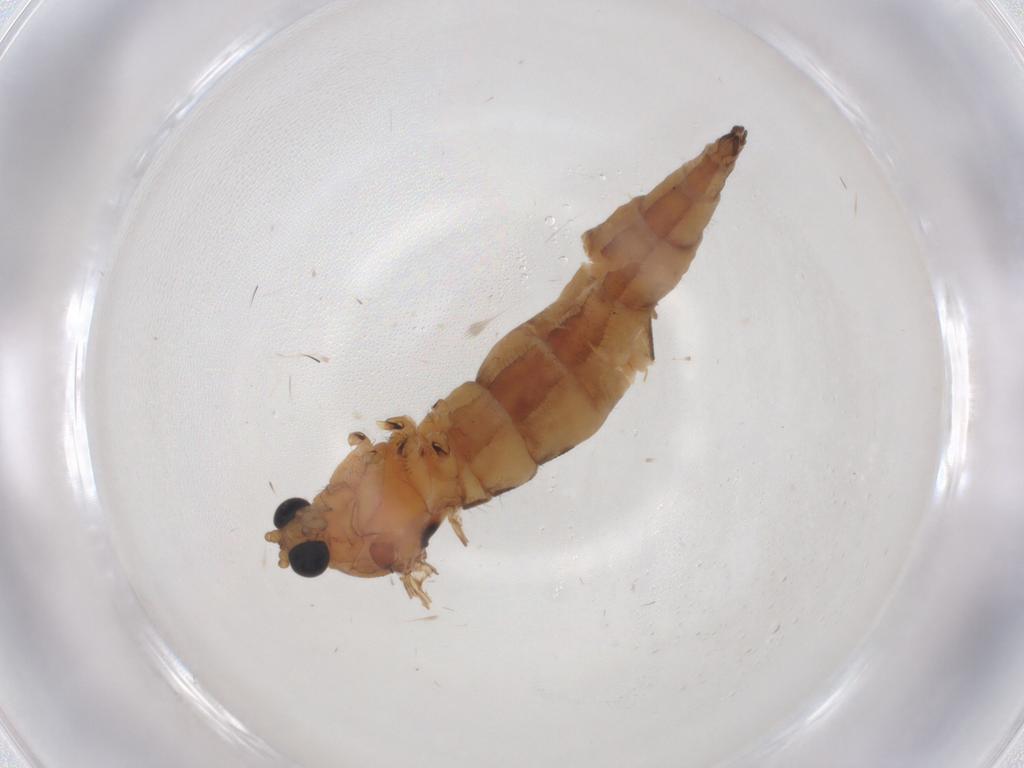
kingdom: Animalia
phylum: Arthropoda
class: Insecta
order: Diptera
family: Sciaridae
